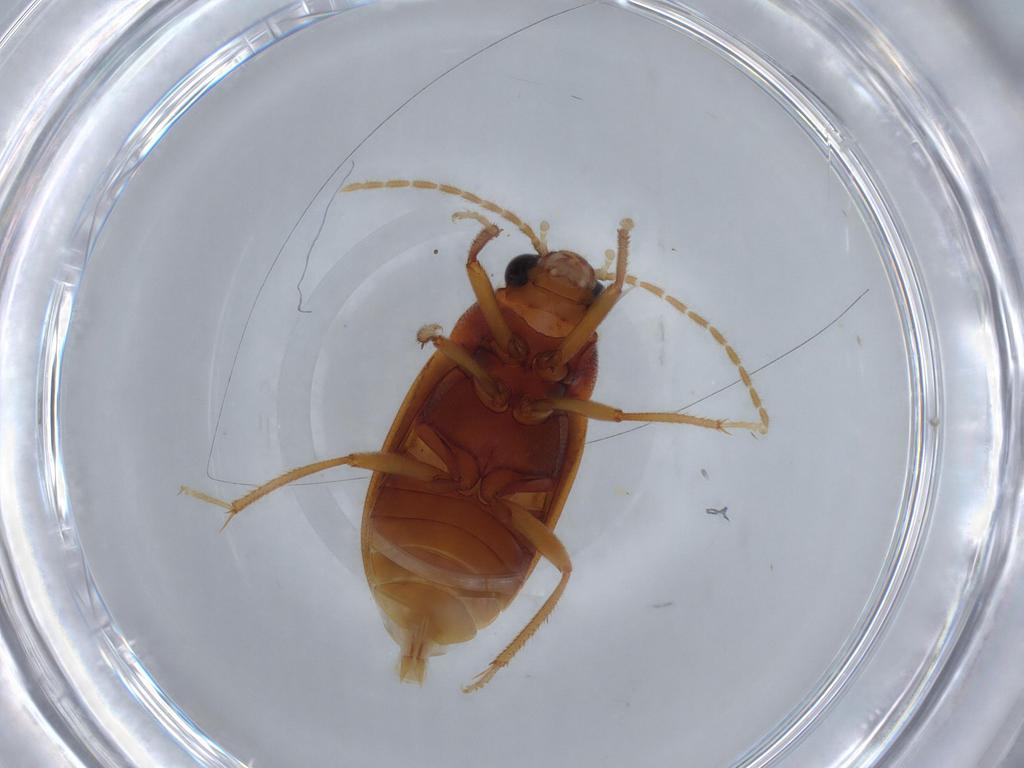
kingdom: Animalia
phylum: Arthropoda
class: Insecta
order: Coleoptera
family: Ptilodactylidae
